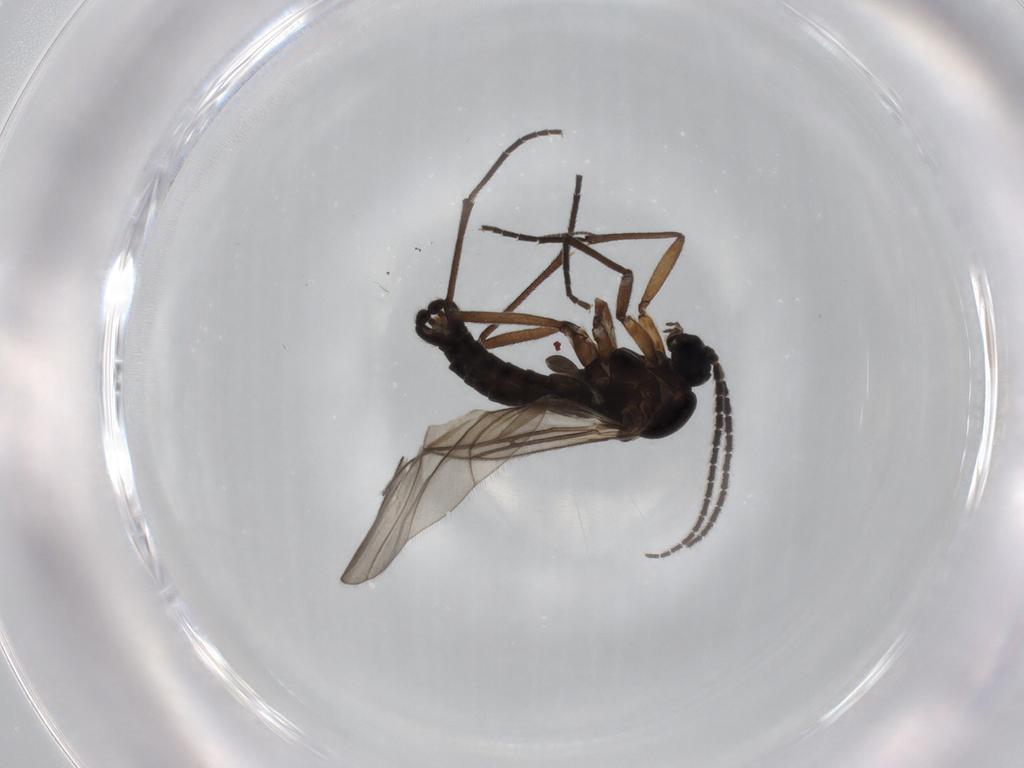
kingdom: Animalia
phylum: Arthropoda
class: Insecta
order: Diptera
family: Sciaridae
